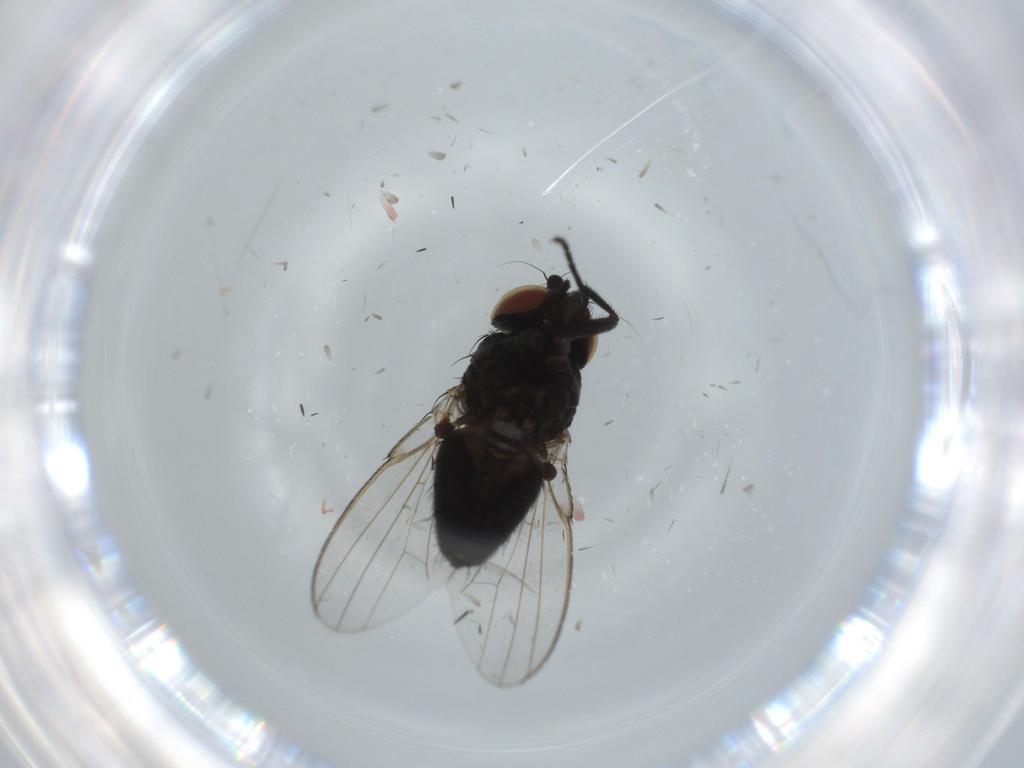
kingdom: Animalia
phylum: Arthropoda
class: Insecta
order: Diptera
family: Milichiidae
